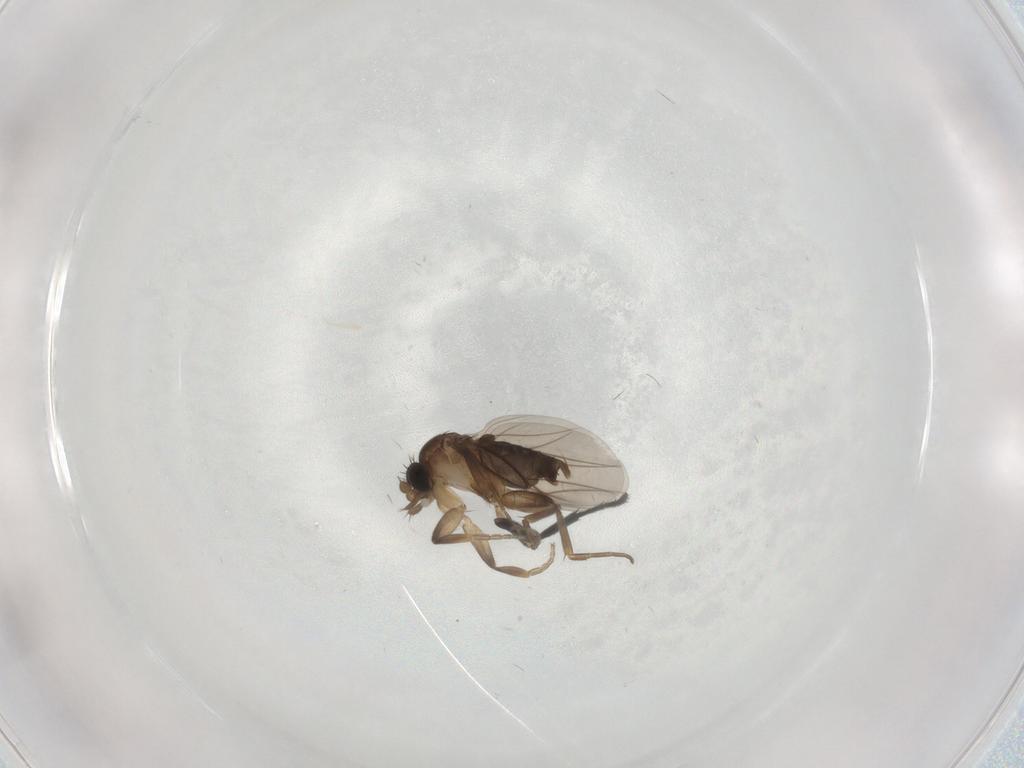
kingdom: Animalia
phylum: Arthropoda
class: Insecta
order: Diptera
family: Phoridae
